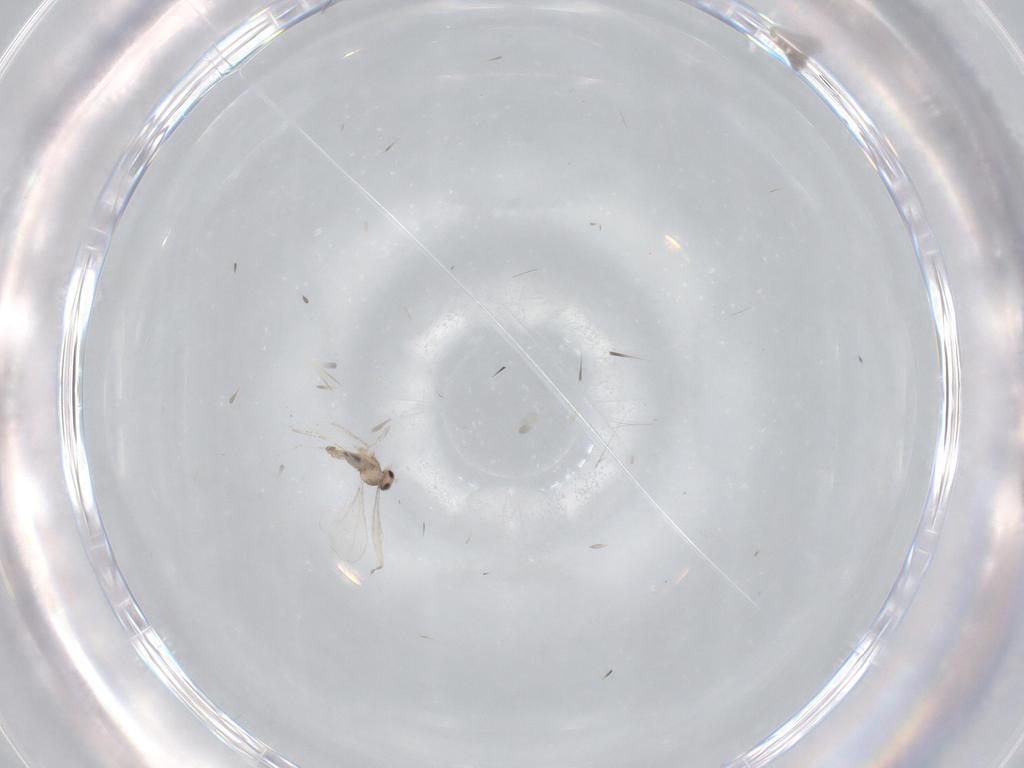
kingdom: Animalia
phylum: Arthropoda
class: Insecta
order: Diptera
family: Cecidomyiidae
